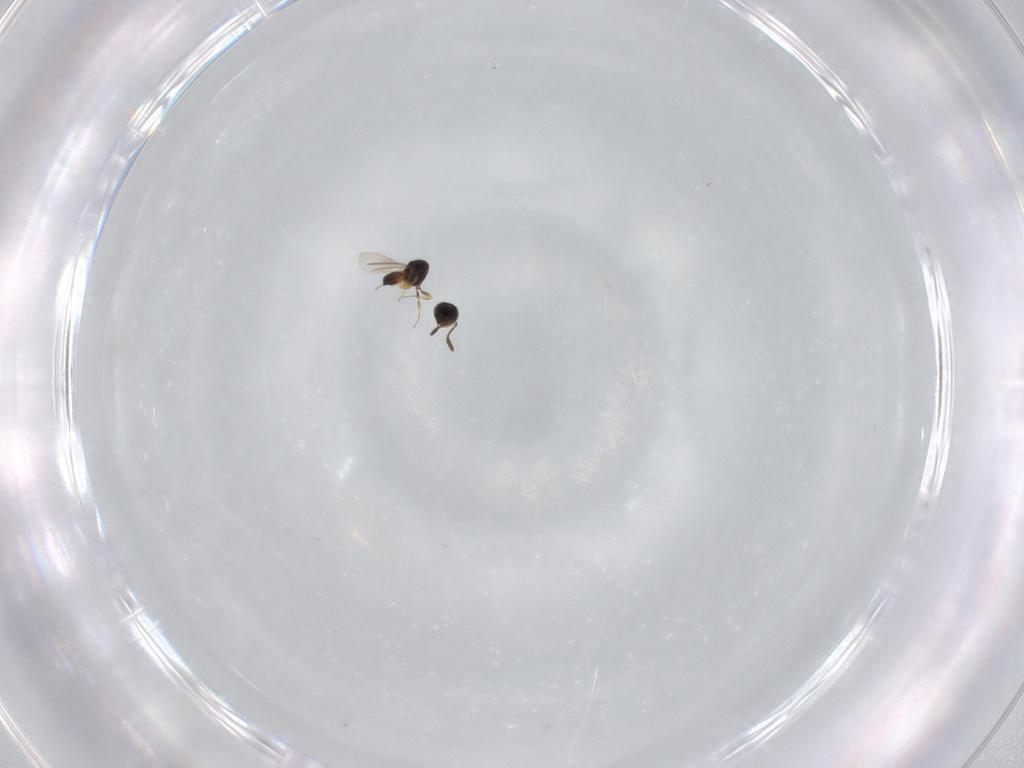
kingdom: Animalia
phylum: Arthropoda
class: Insecta
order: Hymenoptera
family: Scelionidae
